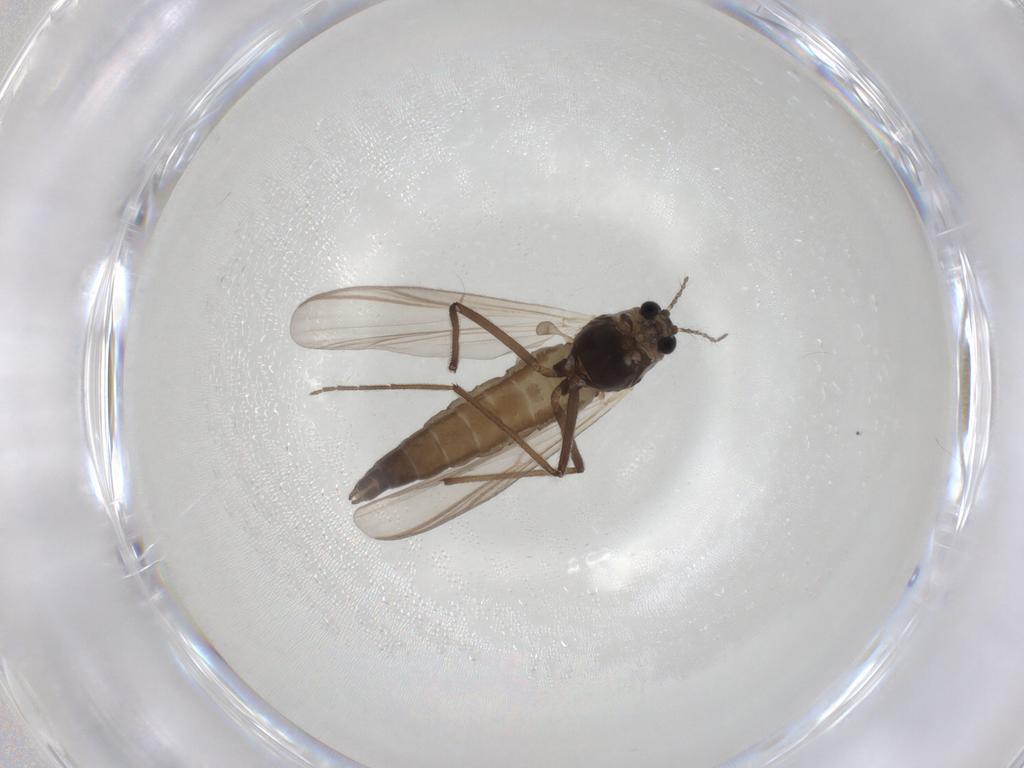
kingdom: Animalia
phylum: Arthropoda
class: Insecta
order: Diptera
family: Chironomidae
